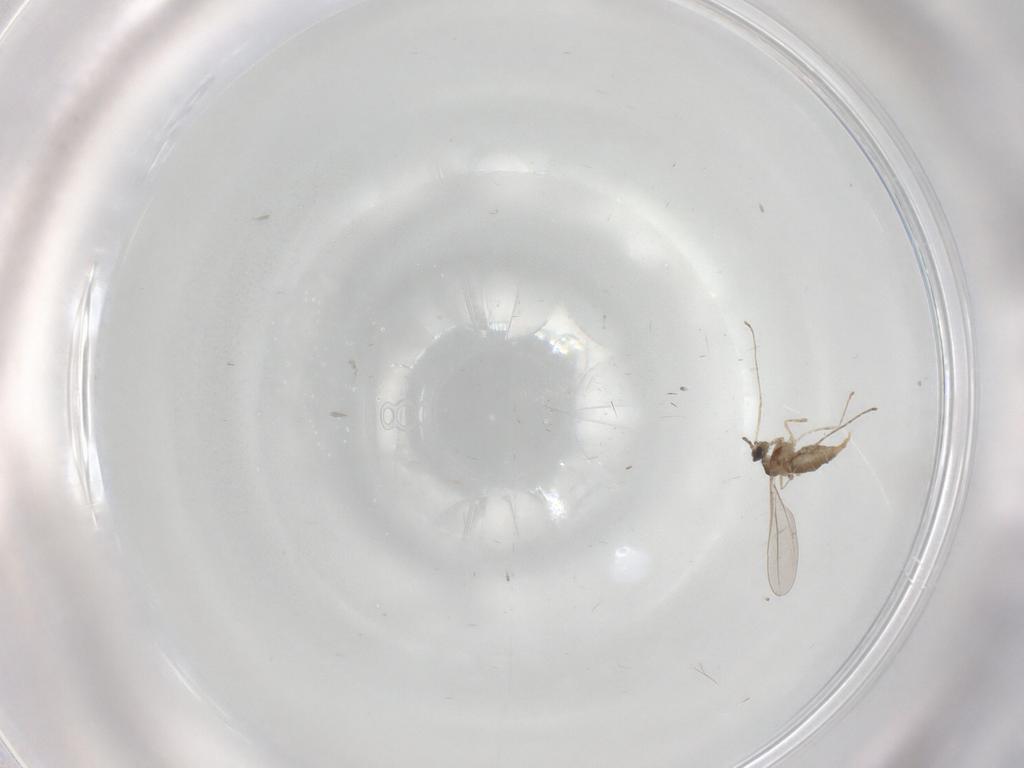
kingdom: Animalia
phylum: Arthropoda
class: Insecta
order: Diptera
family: Cecidomyiidae
